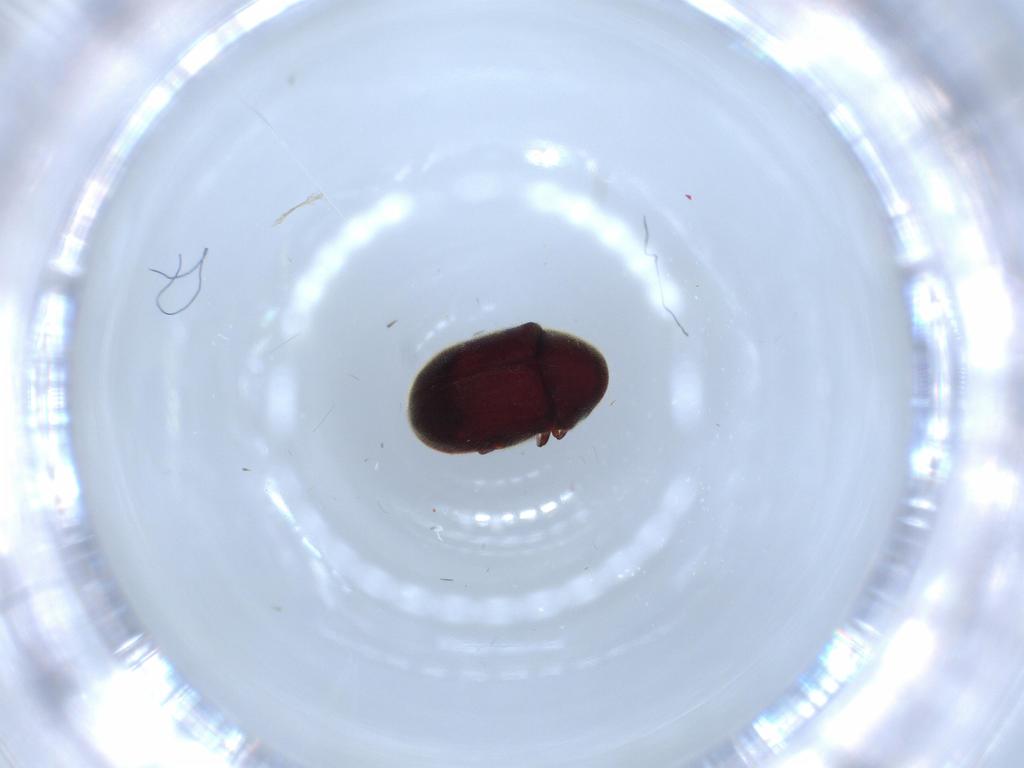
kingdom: Animalia
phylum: Arthropoda
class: Insecta
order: Coleoptera
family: Ptinidae
